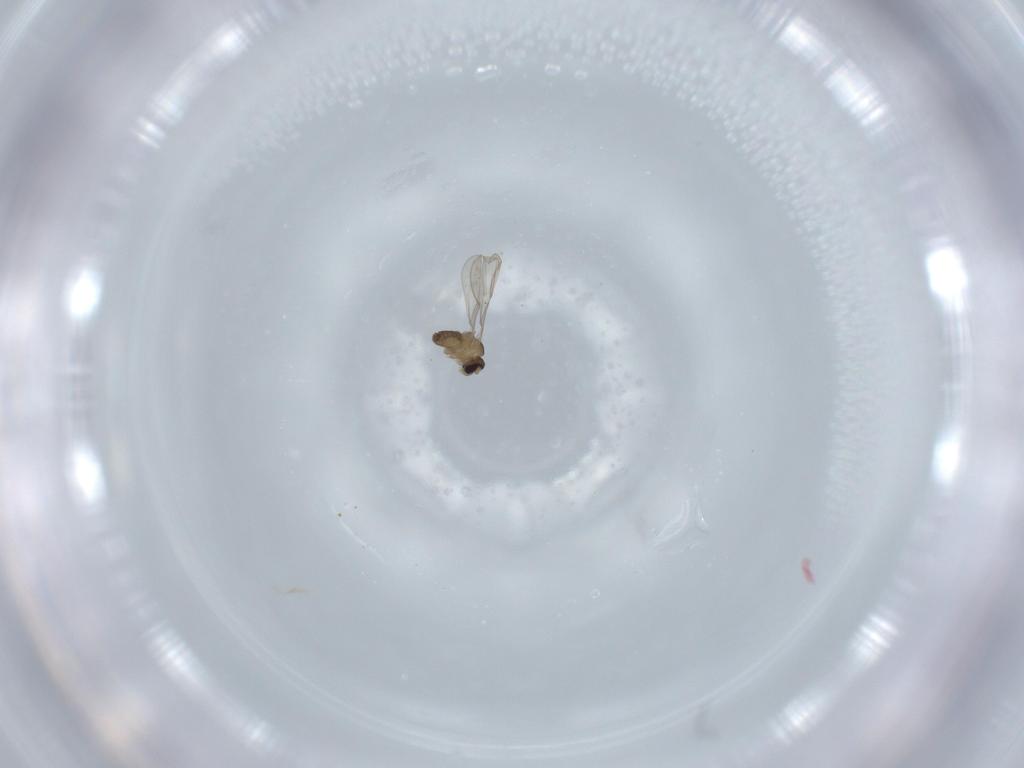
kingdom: Animalia
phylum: Arthropoda
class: Insecta
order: Diptera
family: Cecidomyiidae
